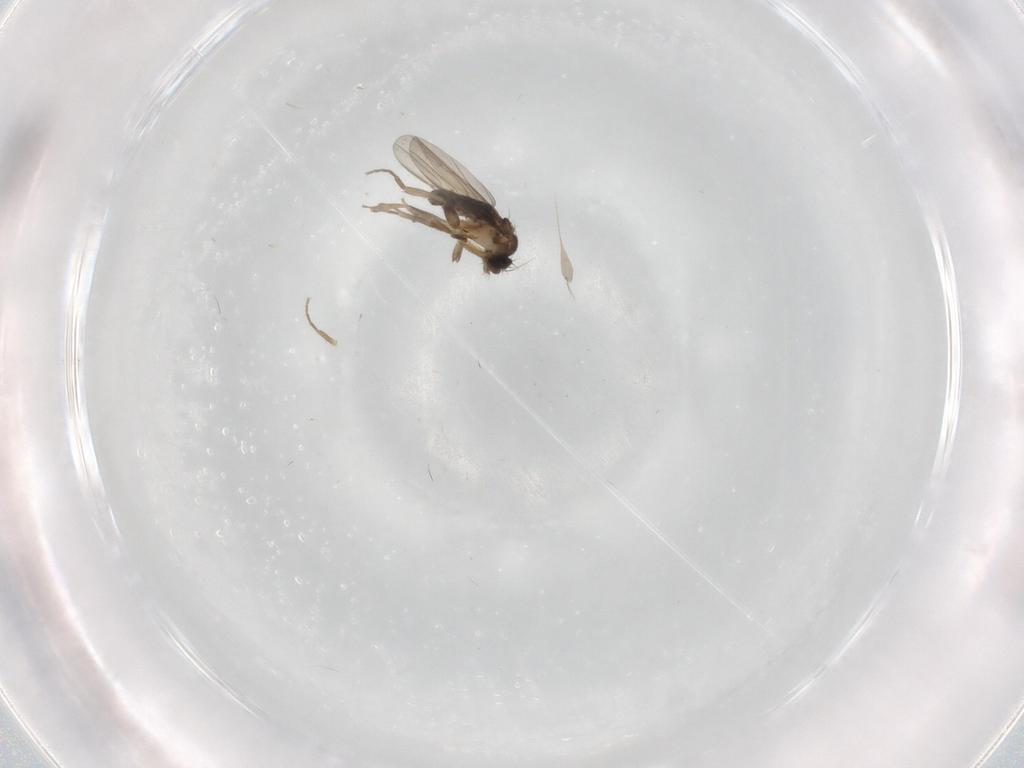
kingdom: Animalia
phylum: Arthropoda
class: Insecta
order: Diptera
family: Phoridae
